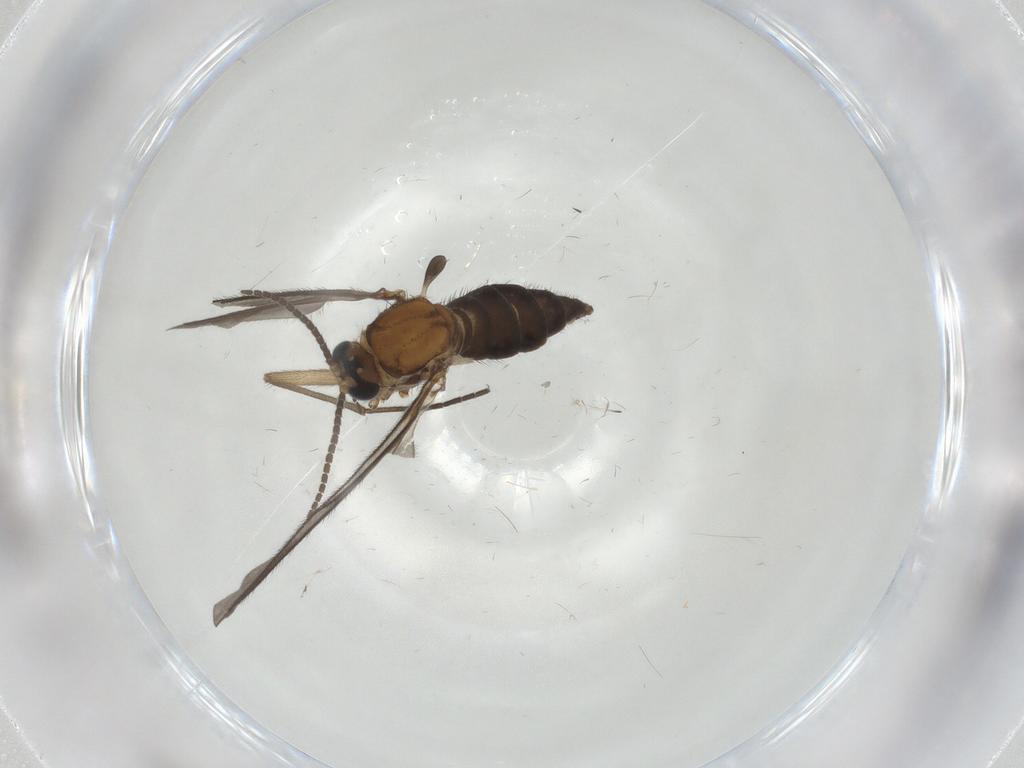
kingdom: Animalia
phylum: Arthropoda
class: Insecta
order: Diptera
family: Sciaridae
